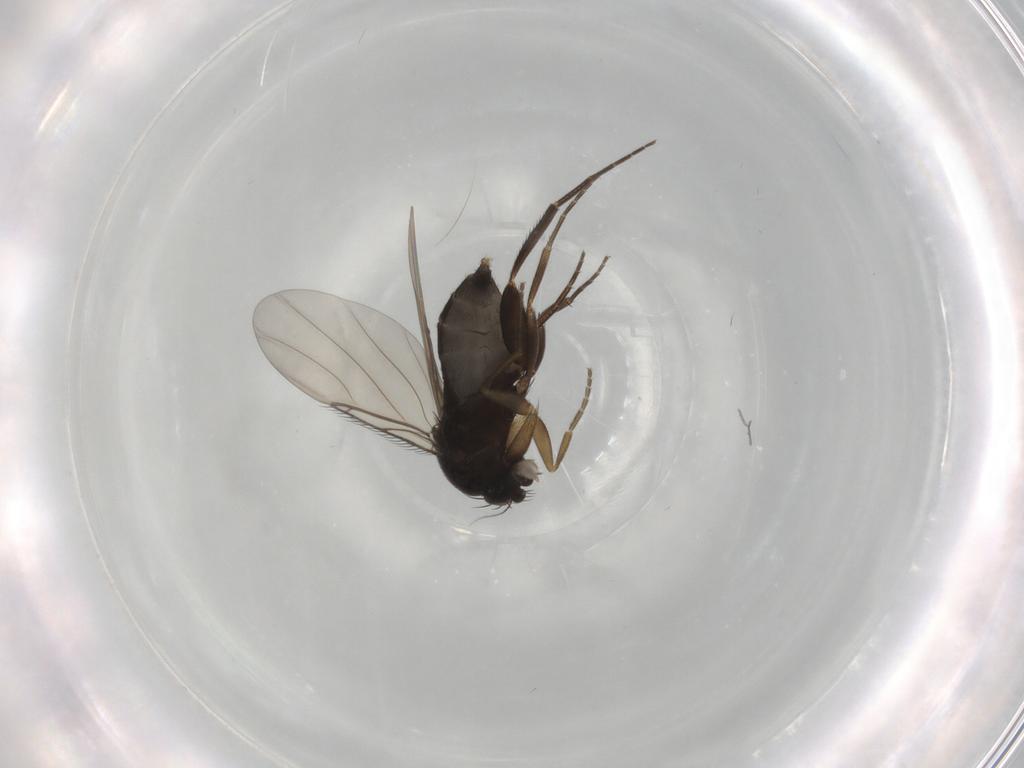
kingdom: Animalia
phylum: Arthropoda
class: Insecta
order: Diptera
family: Phoridae
